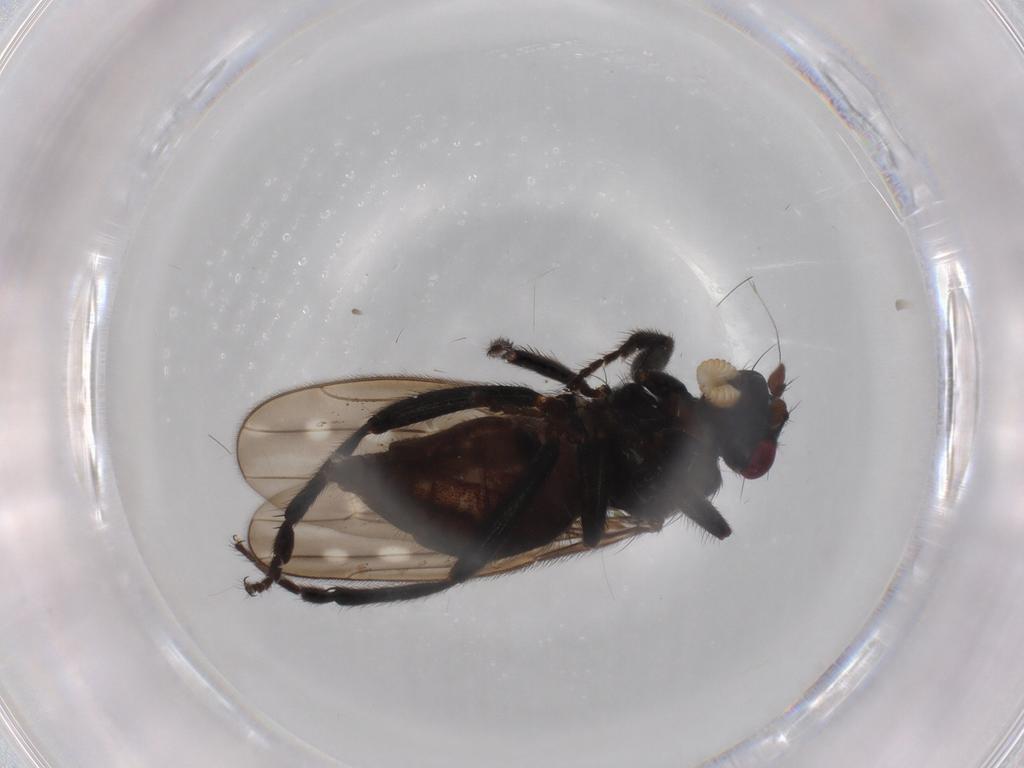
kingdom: Animalia
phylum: Arthropoda
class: Insecta
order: Diptera
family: Sphaeroceridae
